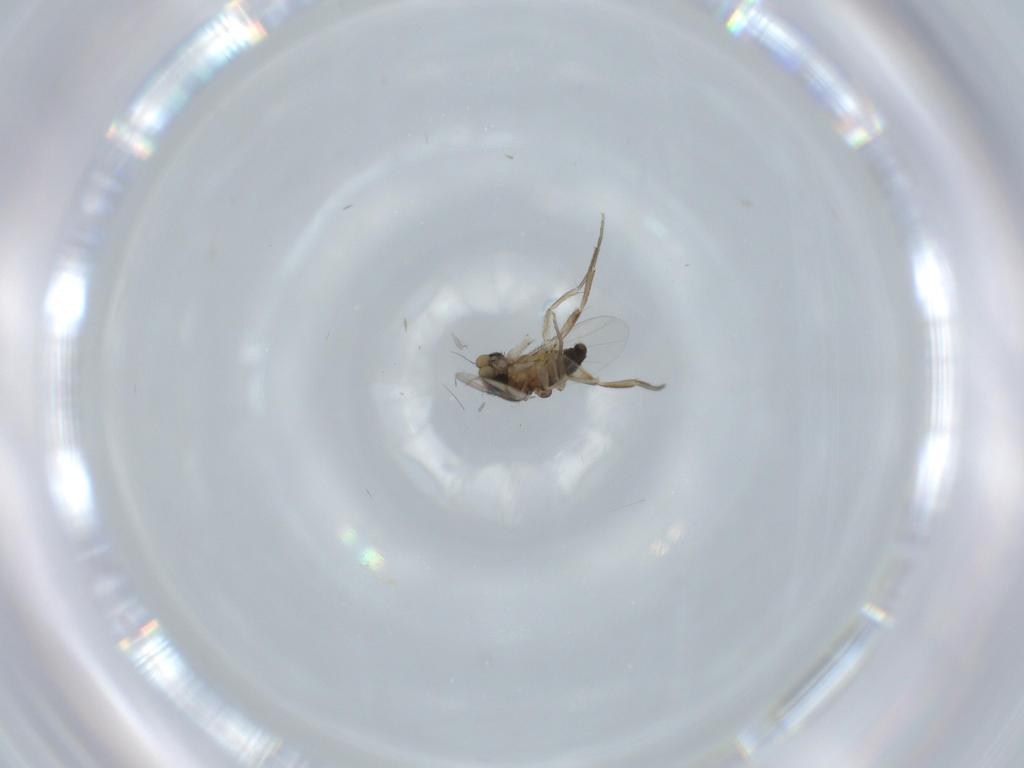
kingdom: Animalia
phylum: Arthropoda
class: Insecta
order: Diptera
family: Phoridae
